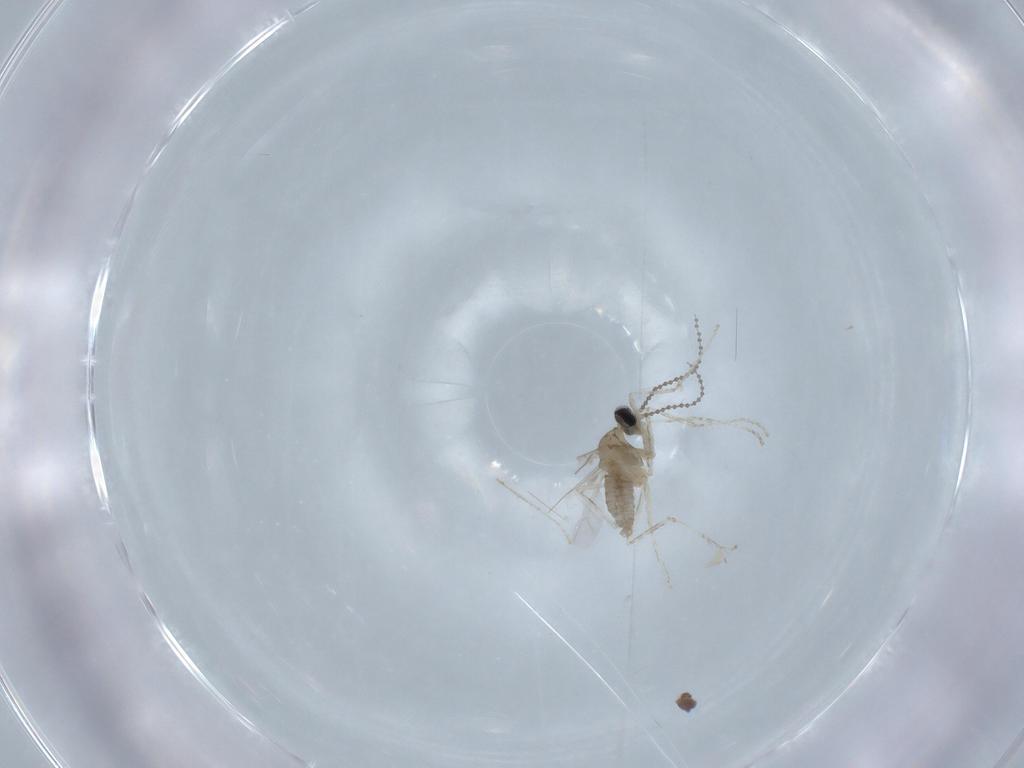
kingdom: Animalia
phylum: Arthropoda
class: Insecta
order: Diptera
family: Cecidomyiidae
